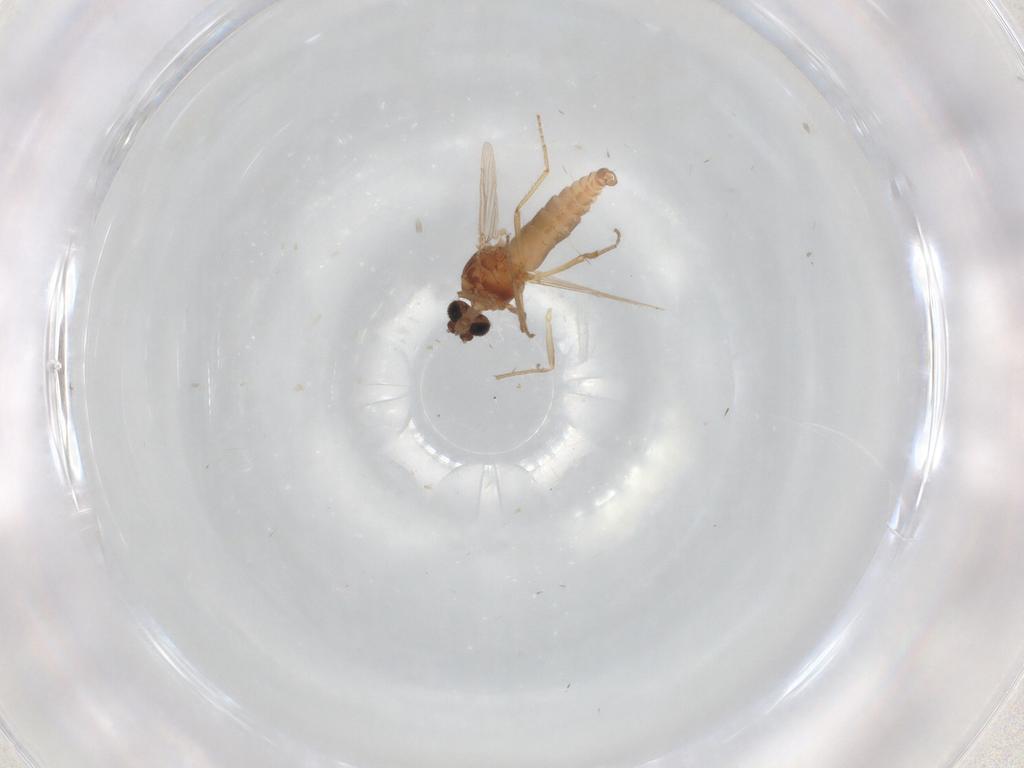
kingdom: Animalia
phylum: Arthropoda
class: Insecta
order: Diptera
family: Chironomidae
